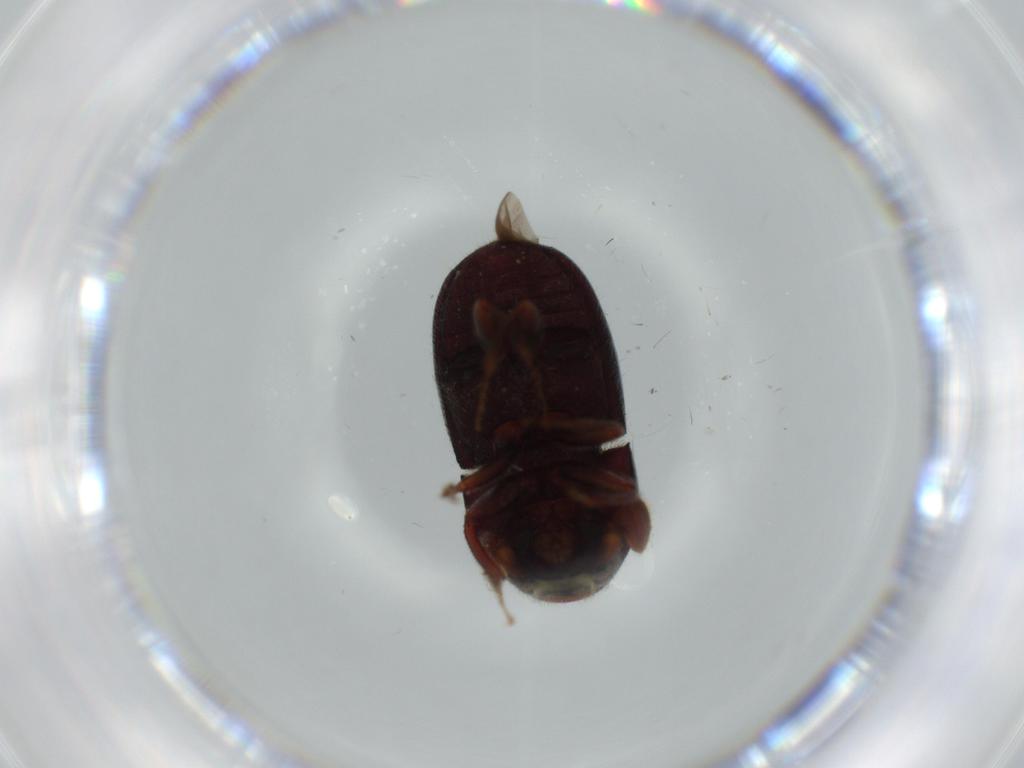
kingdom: Animalia
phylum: Arthropoda
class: Insecta
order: Coleoptera
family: Curculionidae
